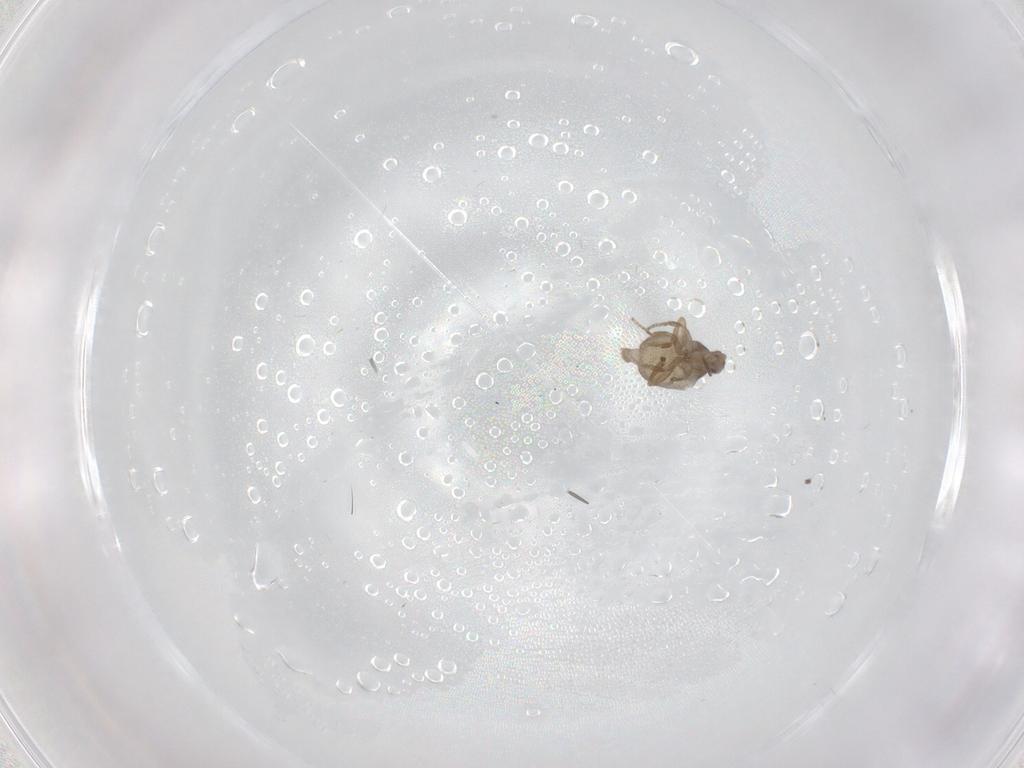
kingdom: Animalia
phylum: Arthropoda
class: Insecta
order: Diptera
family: Phoridae
